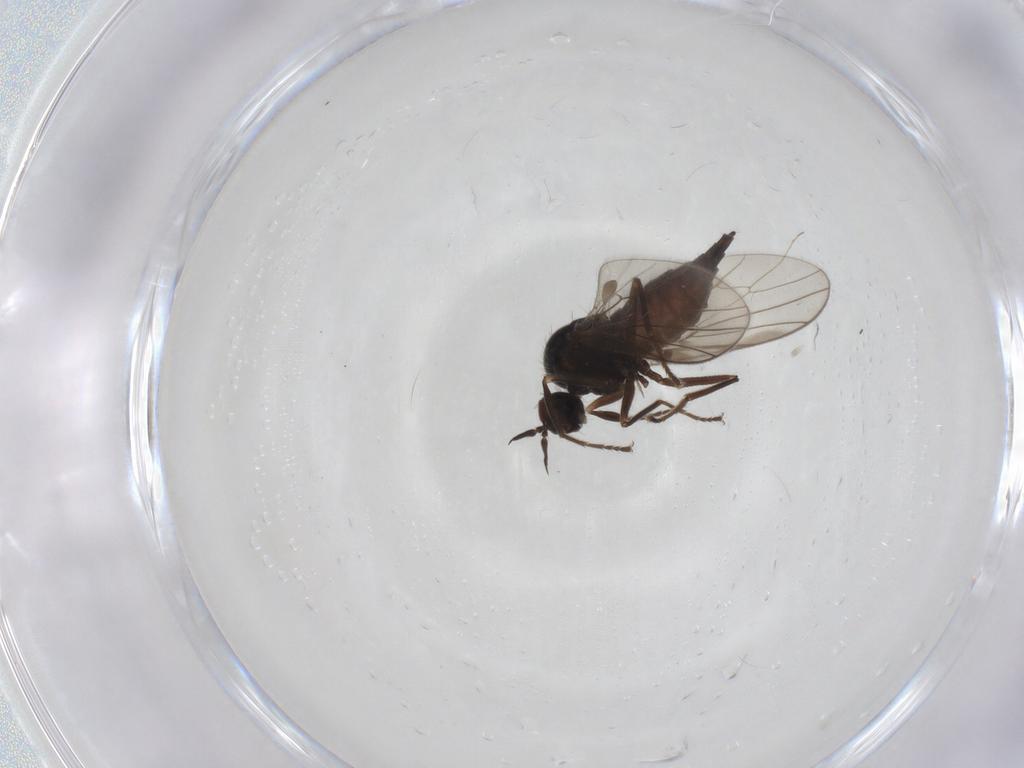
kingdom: Animalia
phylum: Arthropoda
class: Insecta
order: Diptera
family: Hybotidae
